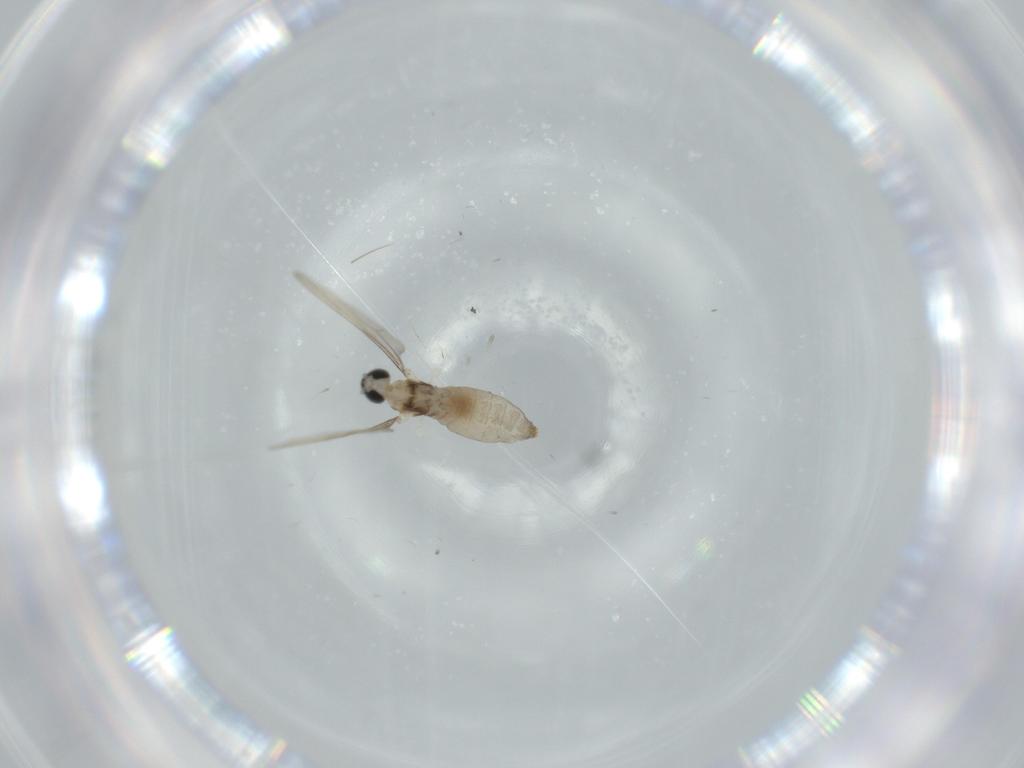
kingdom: Animalia
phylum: Arthropoda
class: Insecta
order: Diptera
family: Cecidomyiidae
